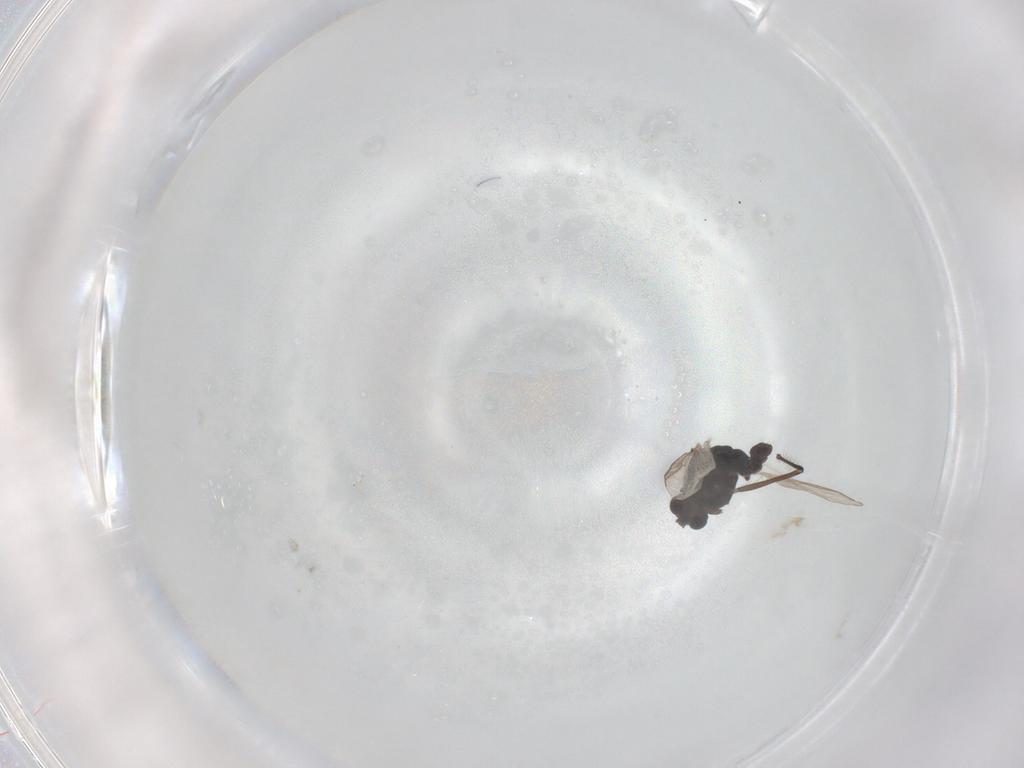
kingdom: Animalia
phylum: Arthropoda
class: Insecta
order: Diptera
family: Chironomidae
